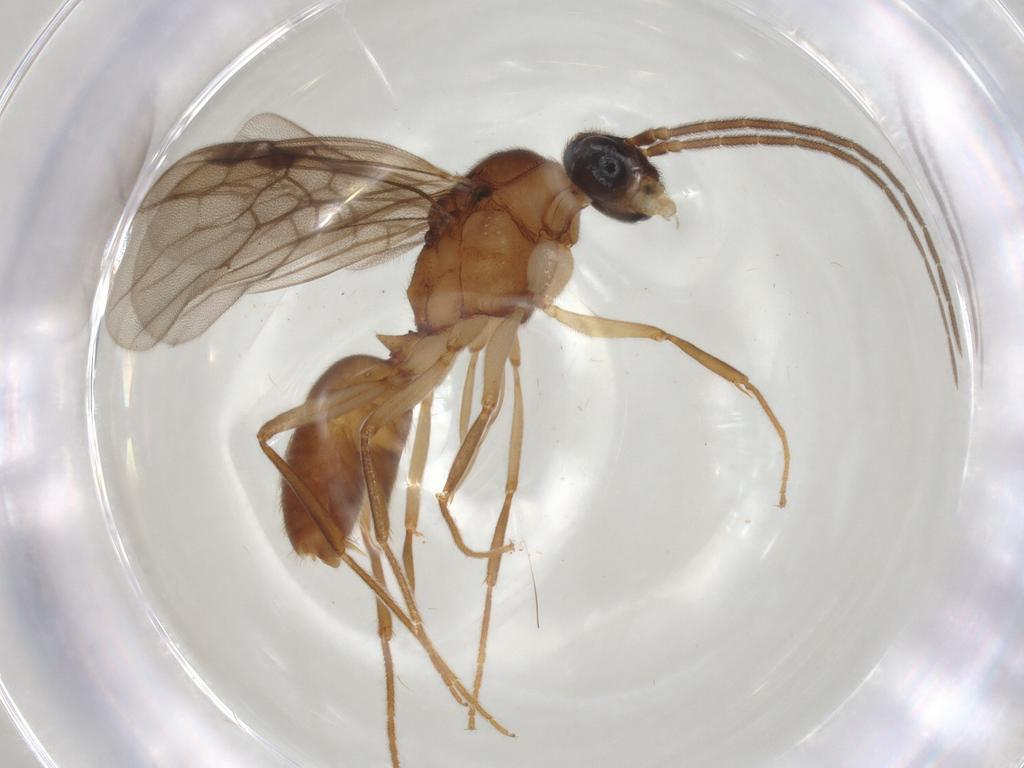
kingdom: Animalia
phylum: Arthropoda
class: Insecta
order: Hymenoptera
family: Formicidae
